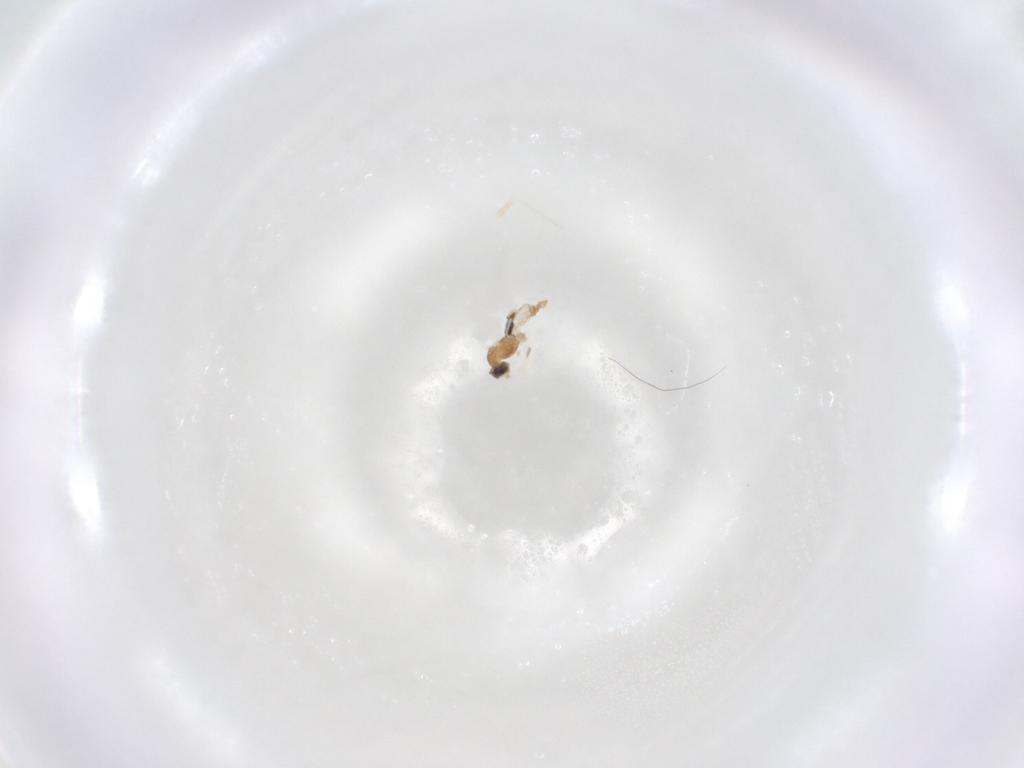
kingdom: Animalia
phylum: Arthropoda
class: Insecta
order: Diptera
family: Cecidomyiidae
